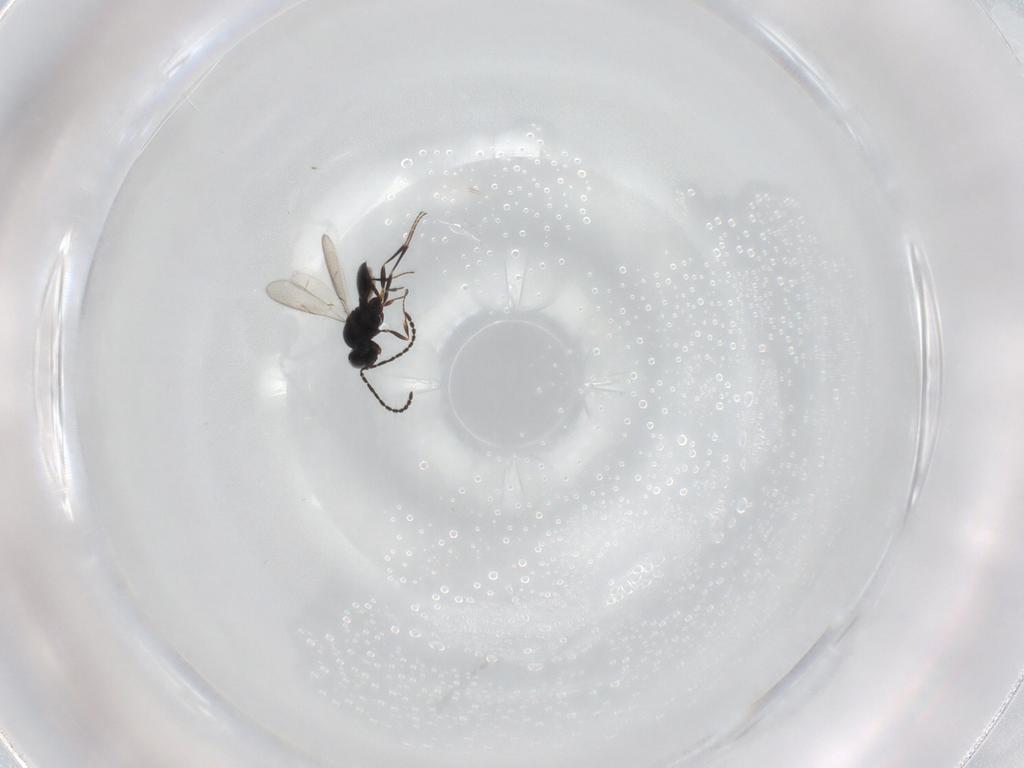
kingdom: Animalia
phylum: Arthropoda
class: Insecta
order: Hymenoptera
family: Scelionidae
